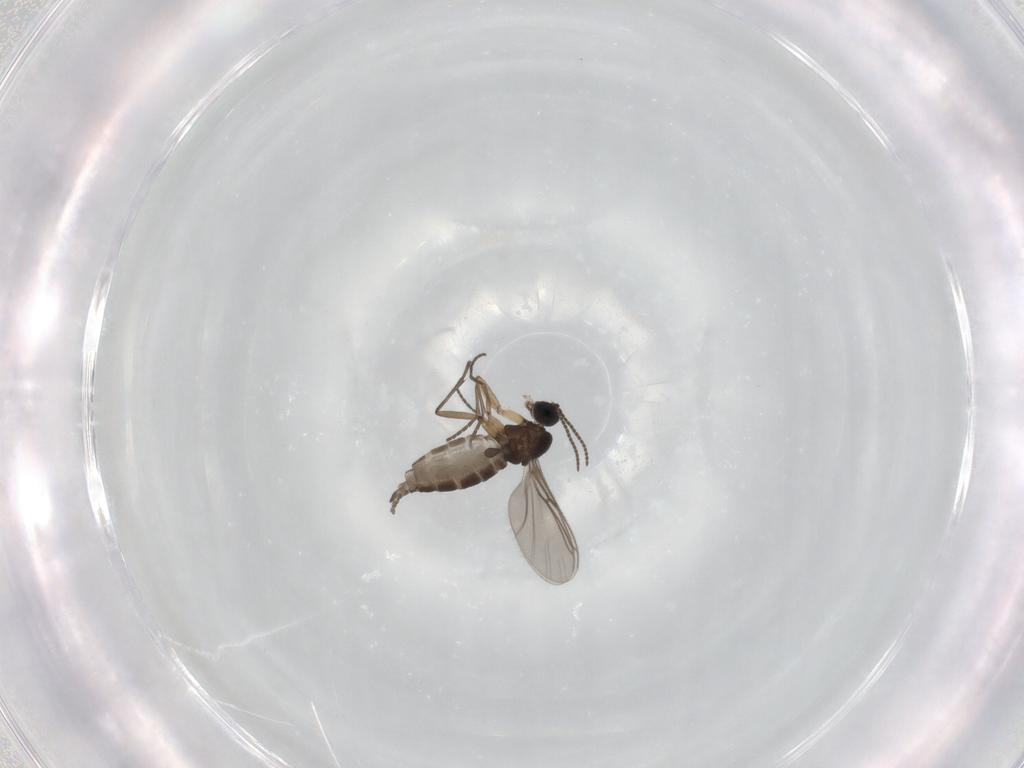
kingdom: Animalia
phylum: Arthropoda
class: Insecta
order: Diptera
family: Sciaridae
